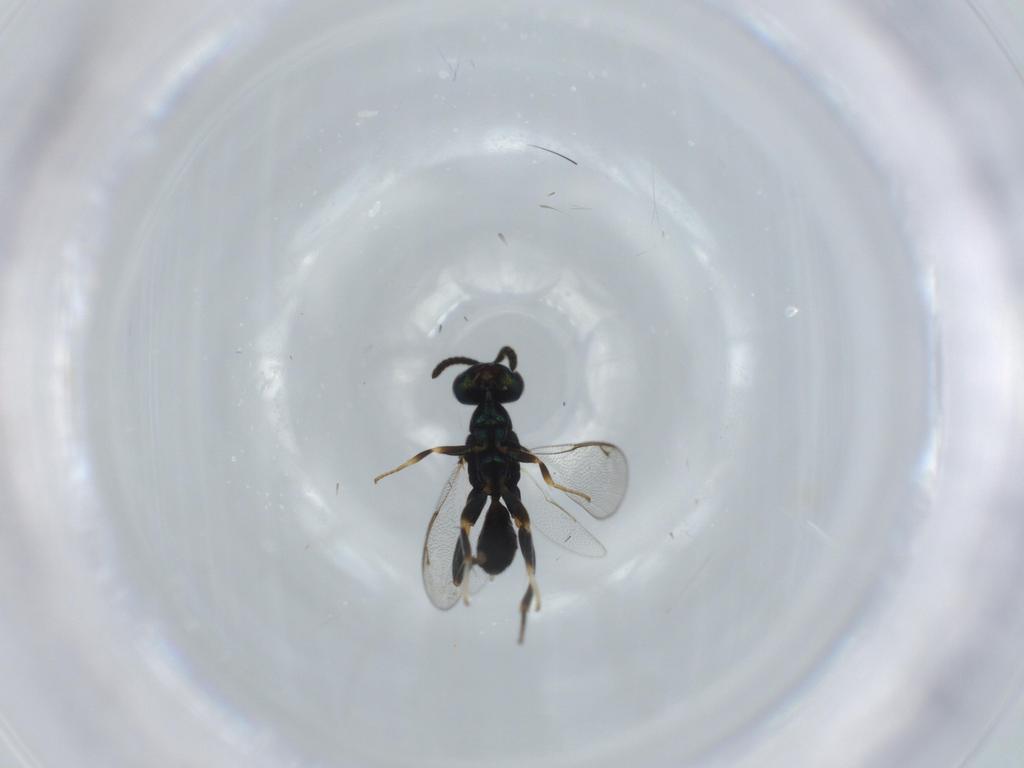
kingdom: Animalia
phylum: Arthropoda
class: Insecta
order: Hymenoptera
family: Cleonyminae
